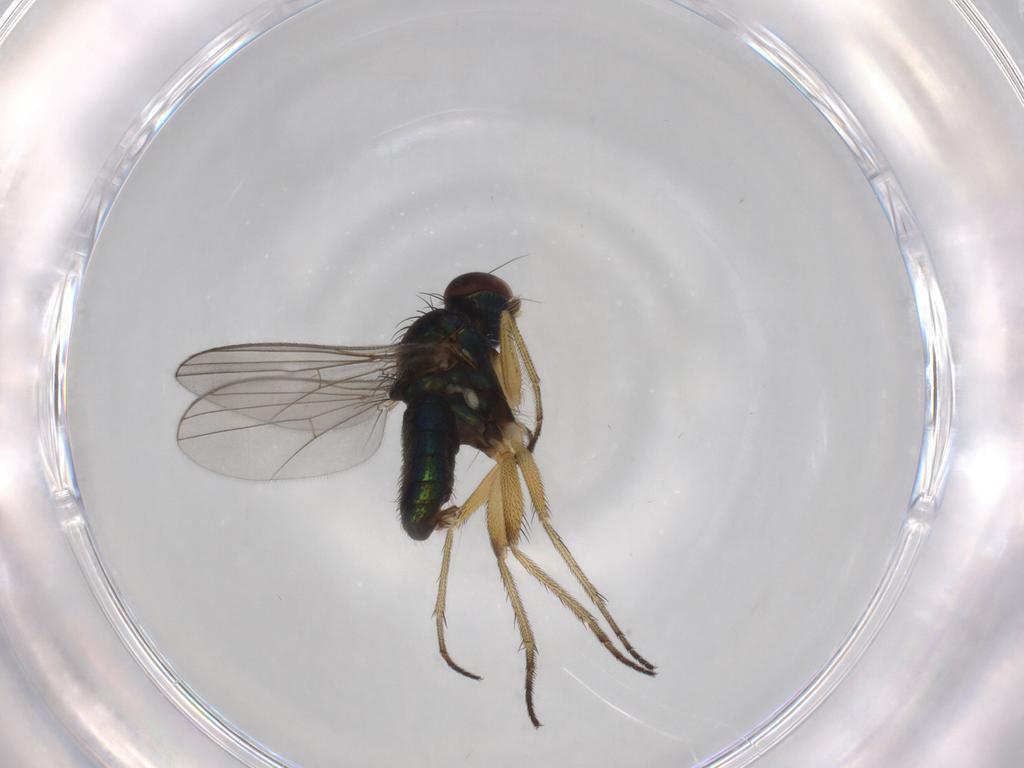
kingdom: Animalia
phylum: Arthropoda
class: Insecta
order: Diptera
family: Dolichopodidae
